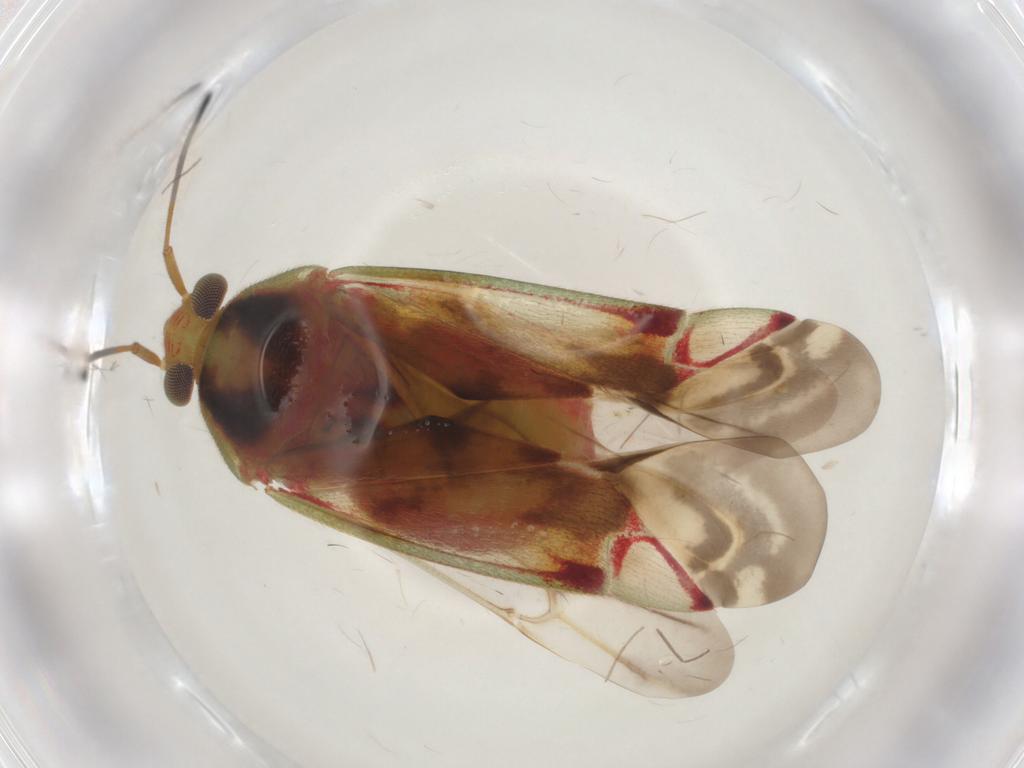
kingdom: Animalia
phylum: Arthropoda
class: Insecta
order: Hemiptera
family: Miridae
